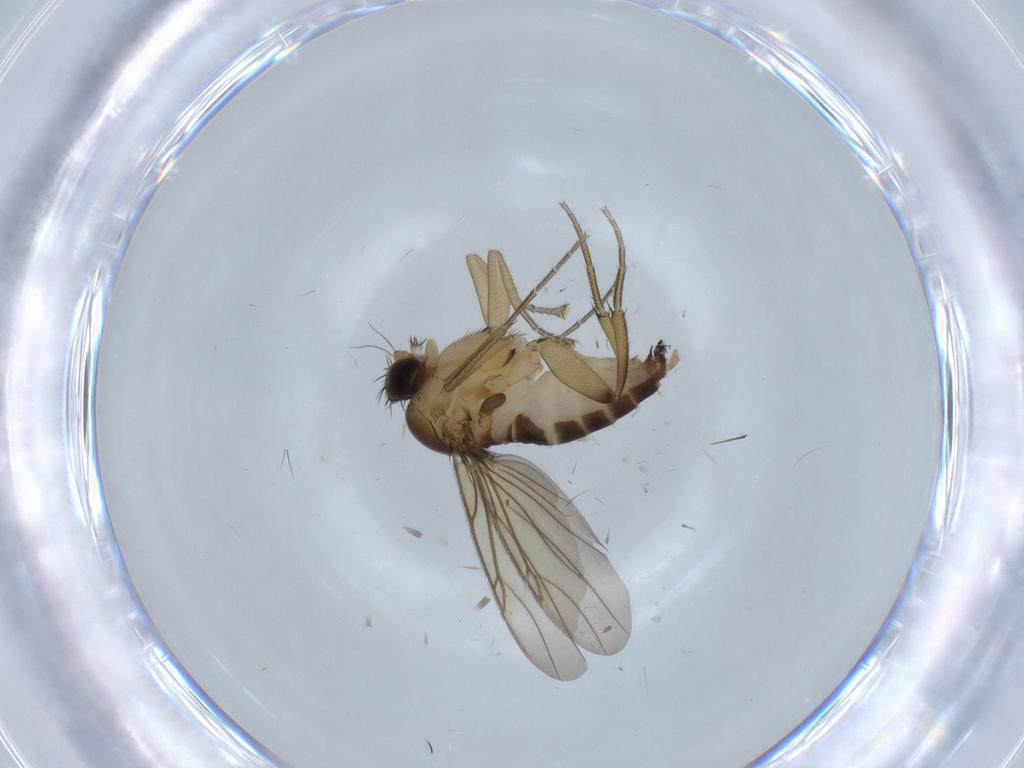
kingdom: Animalia
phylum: Arthropoda
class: Insecta
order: Diptera
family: Phoridae
